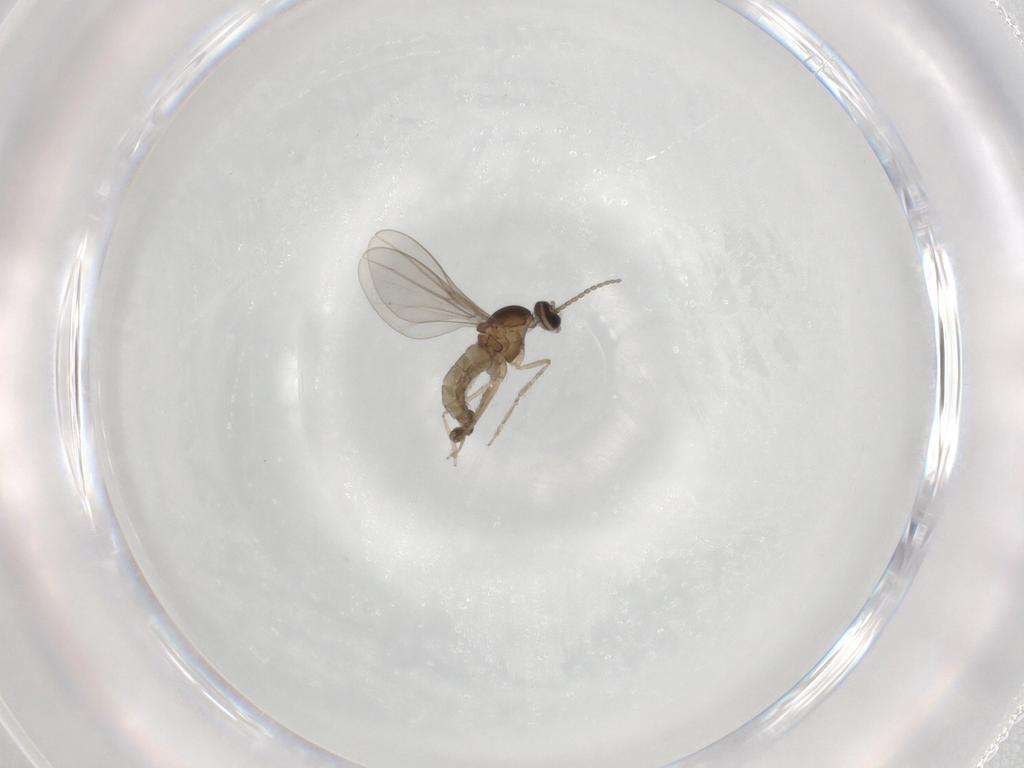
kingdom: Animalia
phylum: Arthropoda
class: Insecta
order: Diptera
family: Cecidomyiidae
